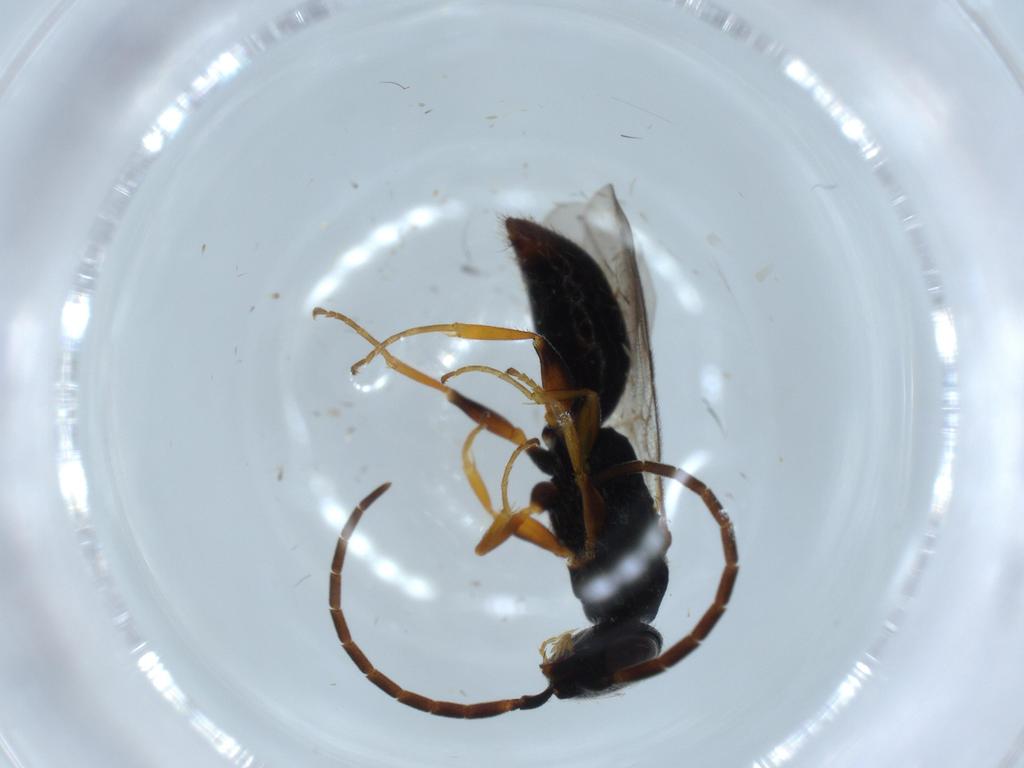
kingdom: Animalia
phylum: Arthropoda
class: Insecta
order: Hymenoptera
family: Bethylidae
